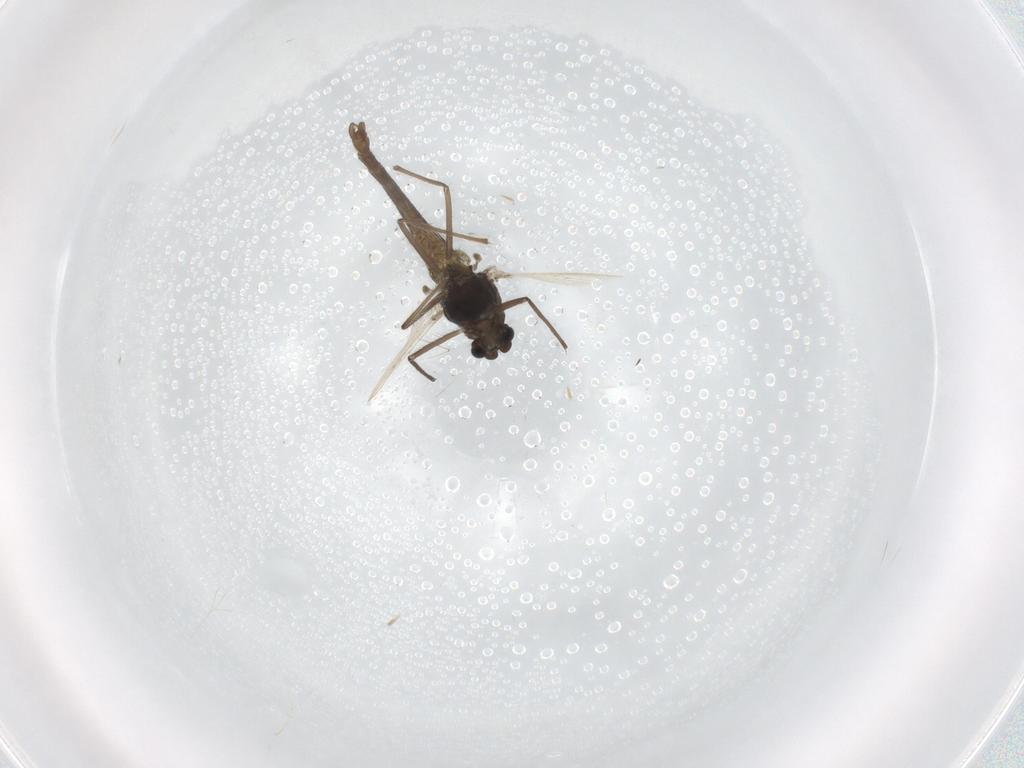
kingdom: Animalia
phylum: Arthropoda
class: Insecta
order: Diptera
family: Chironomidae
